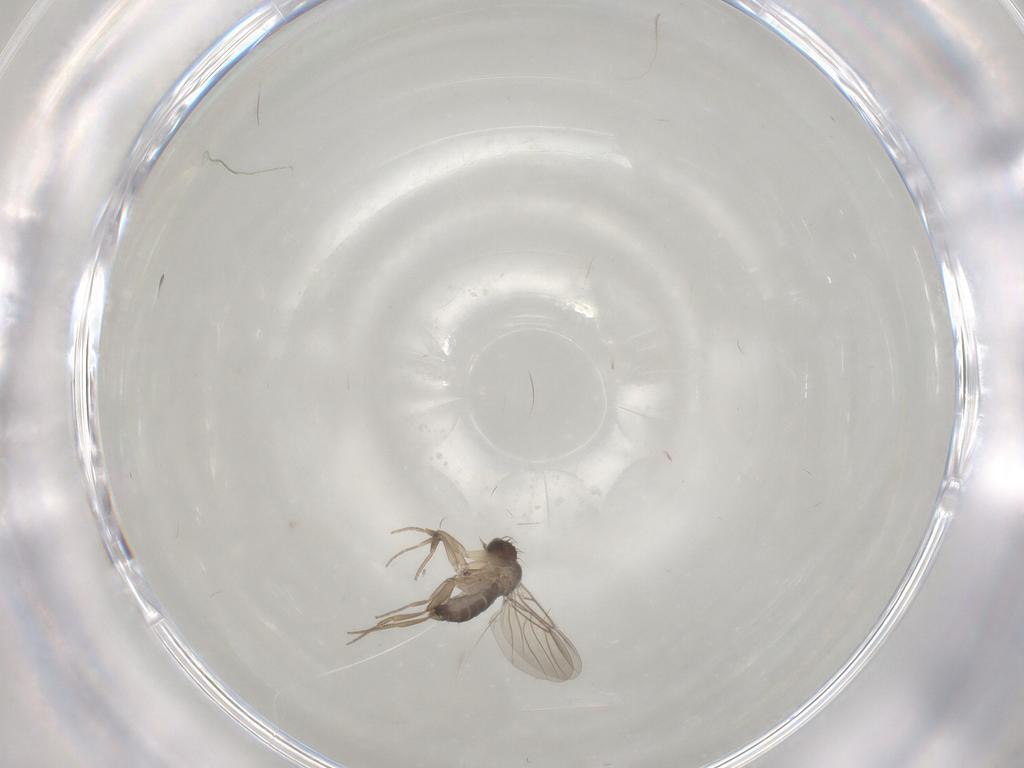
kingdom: Animalia
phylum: Arthropoda
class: Insecta
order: Diptera
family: Phoridae
